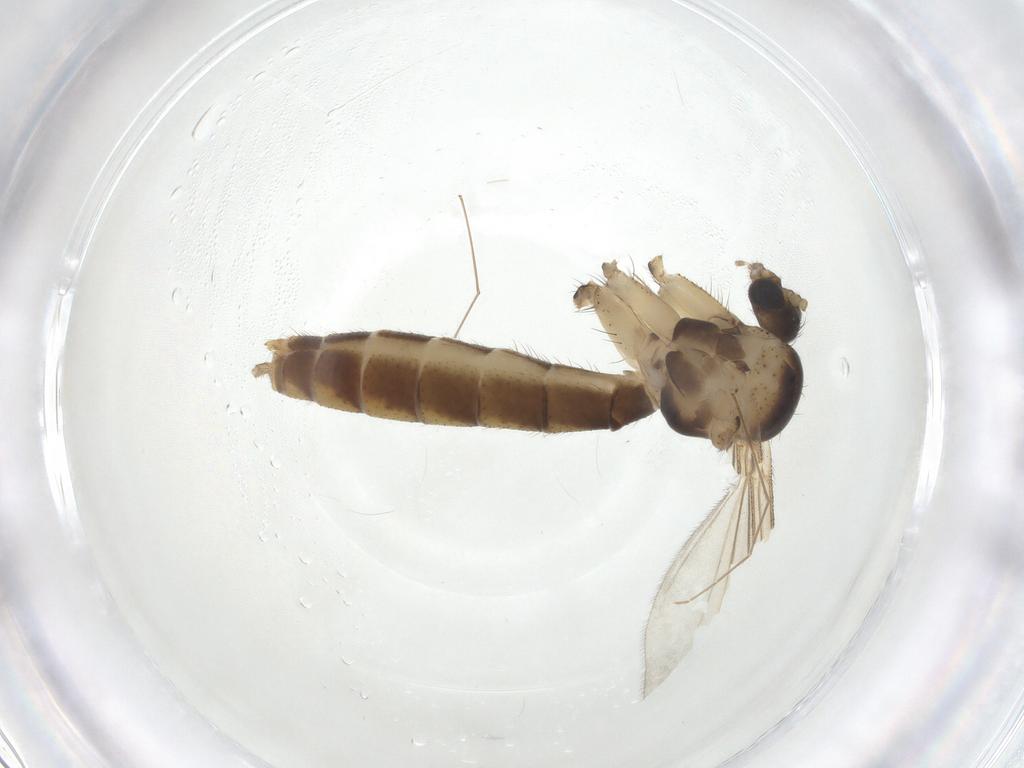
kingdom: Animalia
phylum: Arthropoda
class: Insecta
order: Diptera
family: Mycetophilidae
